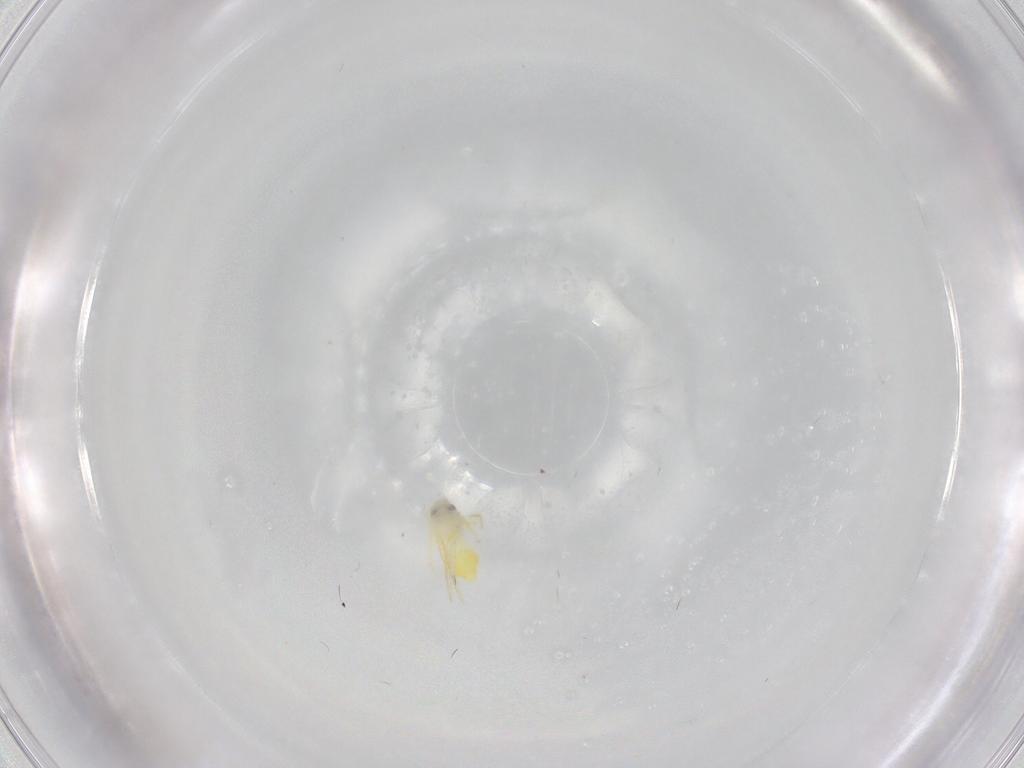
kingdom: Animalia
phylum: Arthropoda
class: Insecta
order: Hemiptera
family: Aleyrodidae
